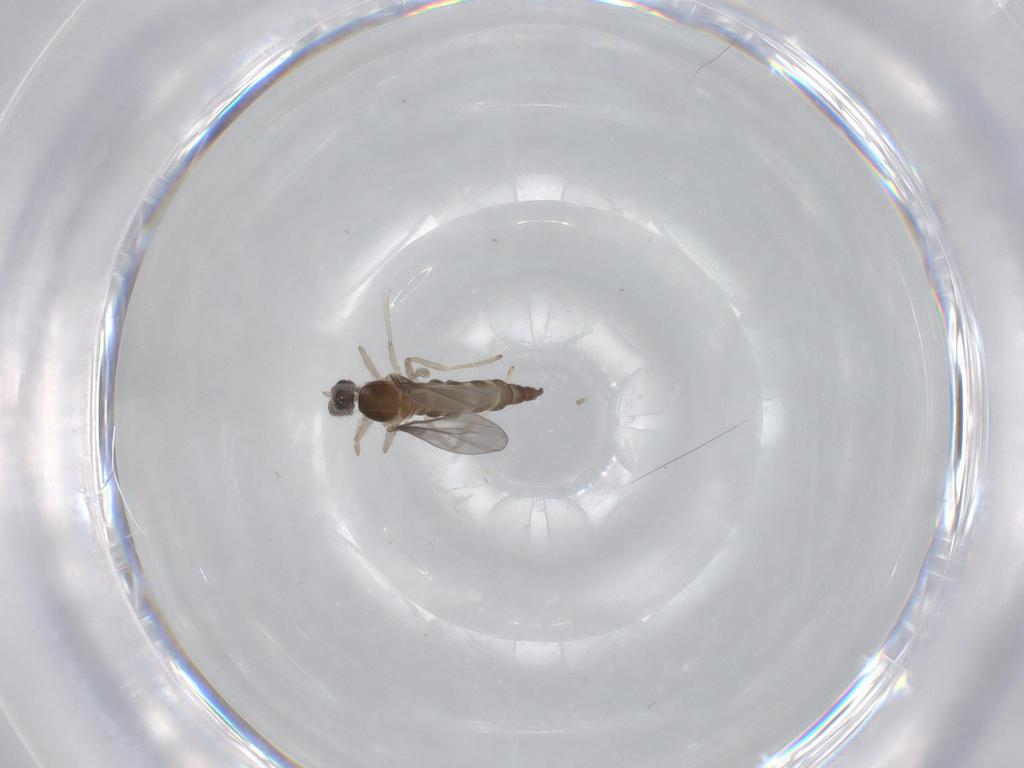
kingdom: Animalia
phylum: Arthropoda
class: Insecta
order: Diptera
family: Cecidomyiidae
